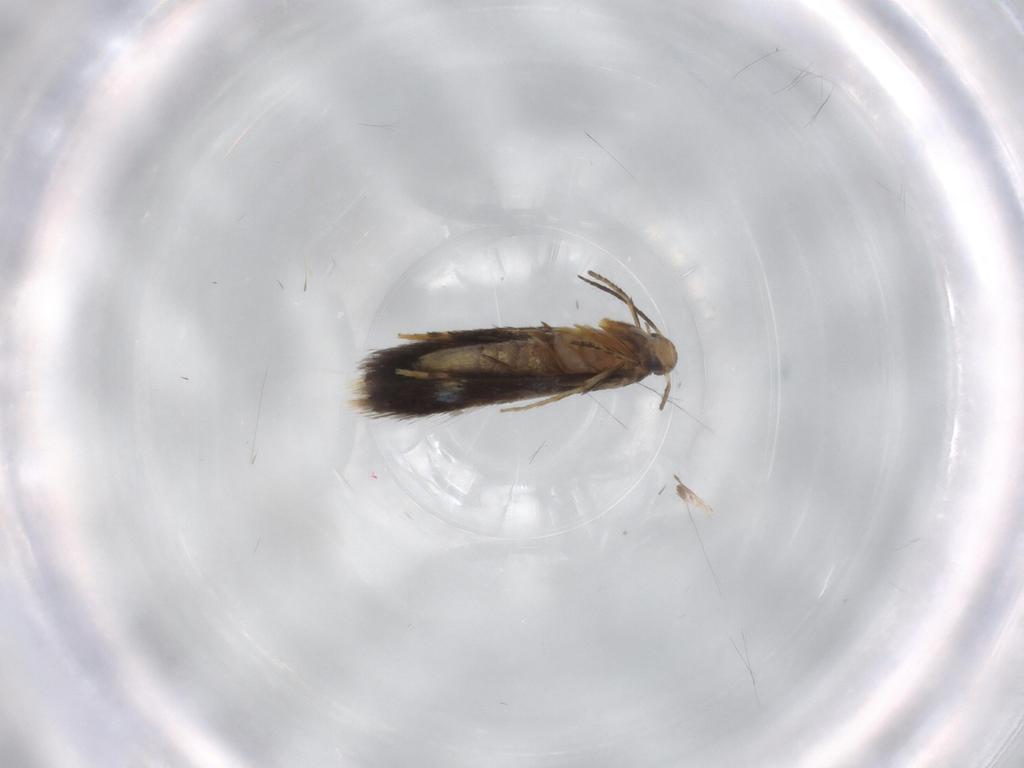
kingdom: Animalia
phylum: Arthropoda
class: Insecta
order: Lepidoptera
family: Heliozelidae
